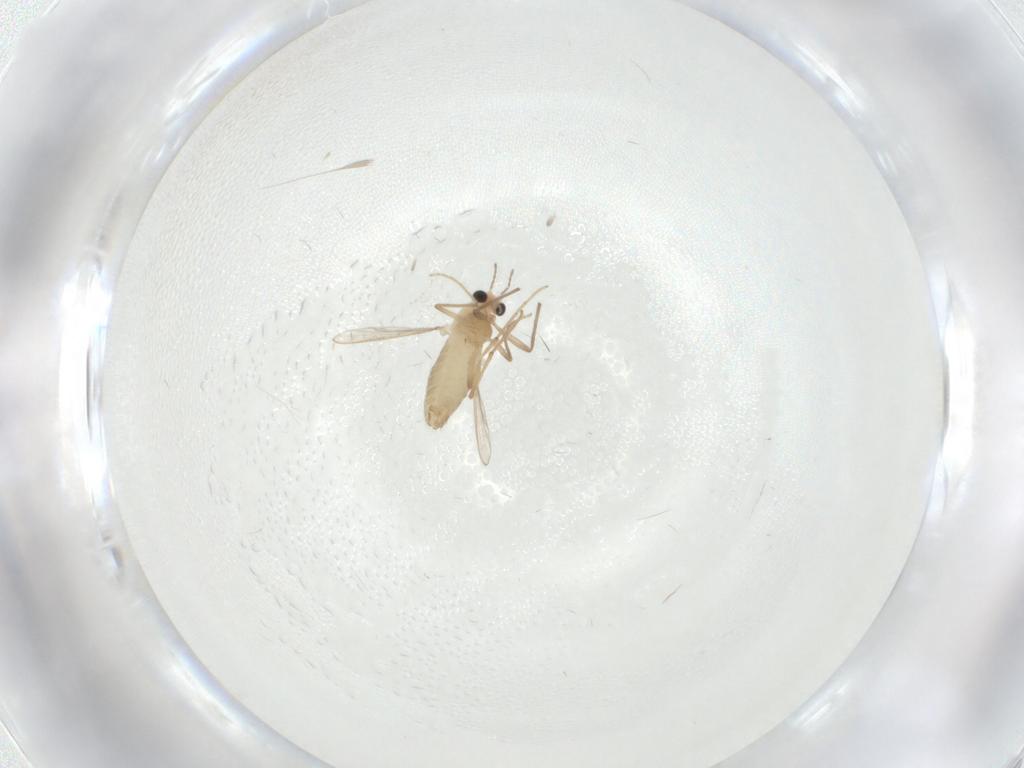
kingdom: Animalia
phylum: Arthropoda
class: Insecta
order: Diptera
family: Chironomidae
